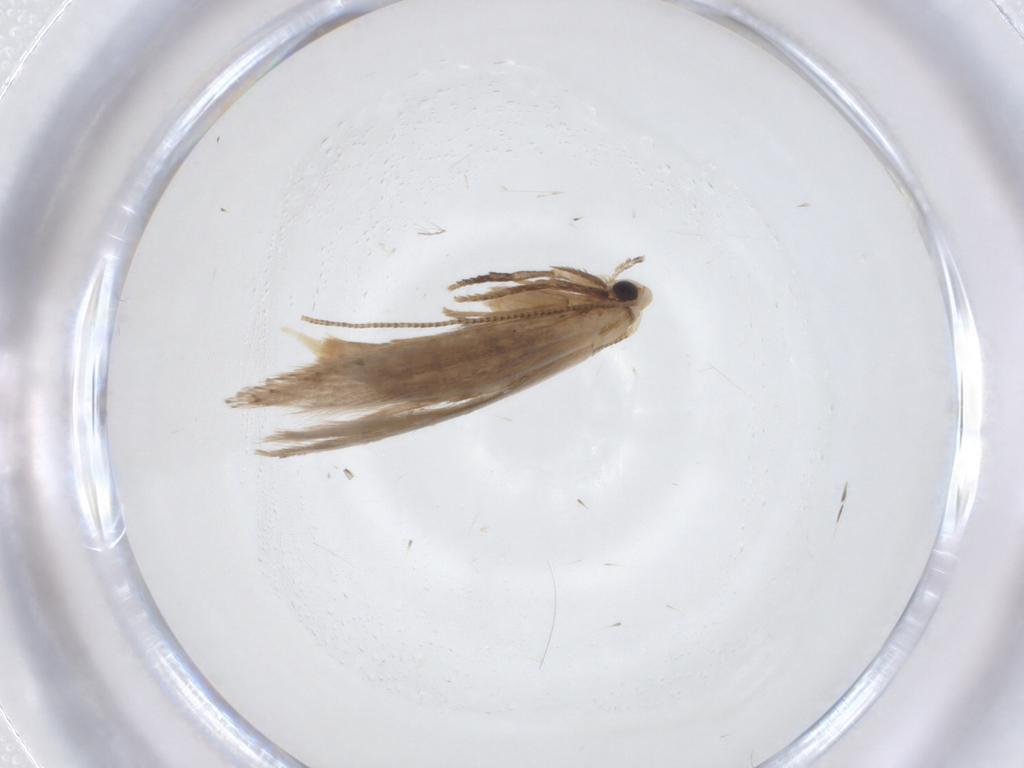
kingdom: Animalia
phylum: Arthropoda
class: Insecta
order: Lepidoptera
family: Tineidae
